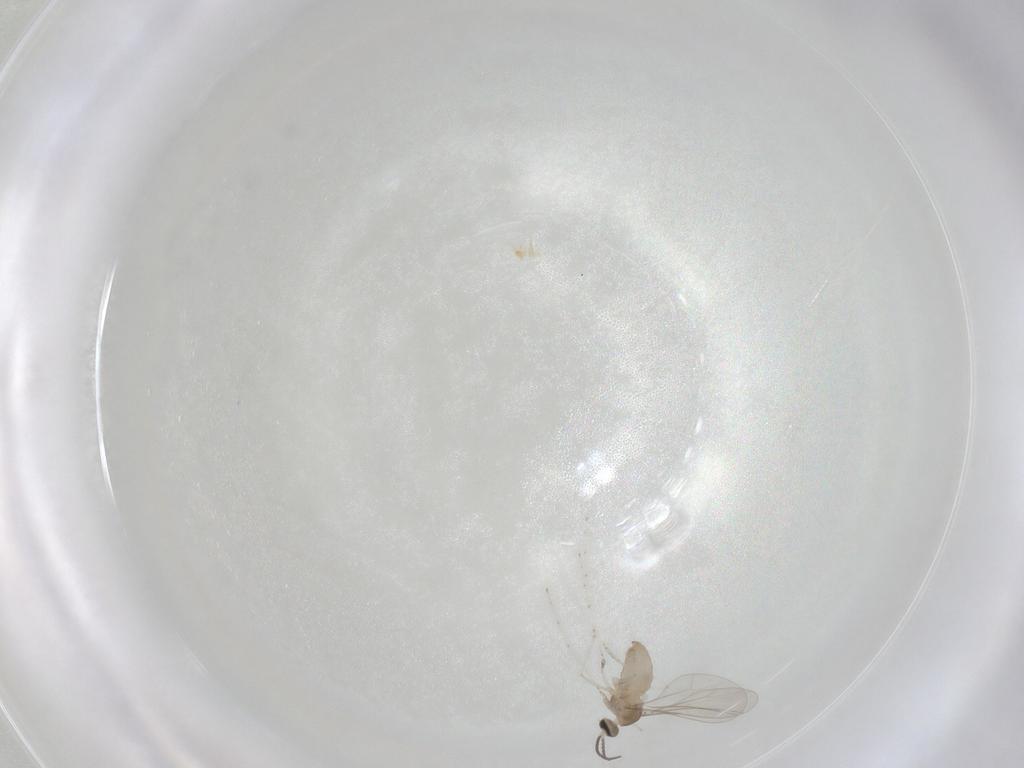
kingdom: Animalia
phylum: Arthropoda
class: Insecta
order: Diptera
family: Cecidomyiidae
